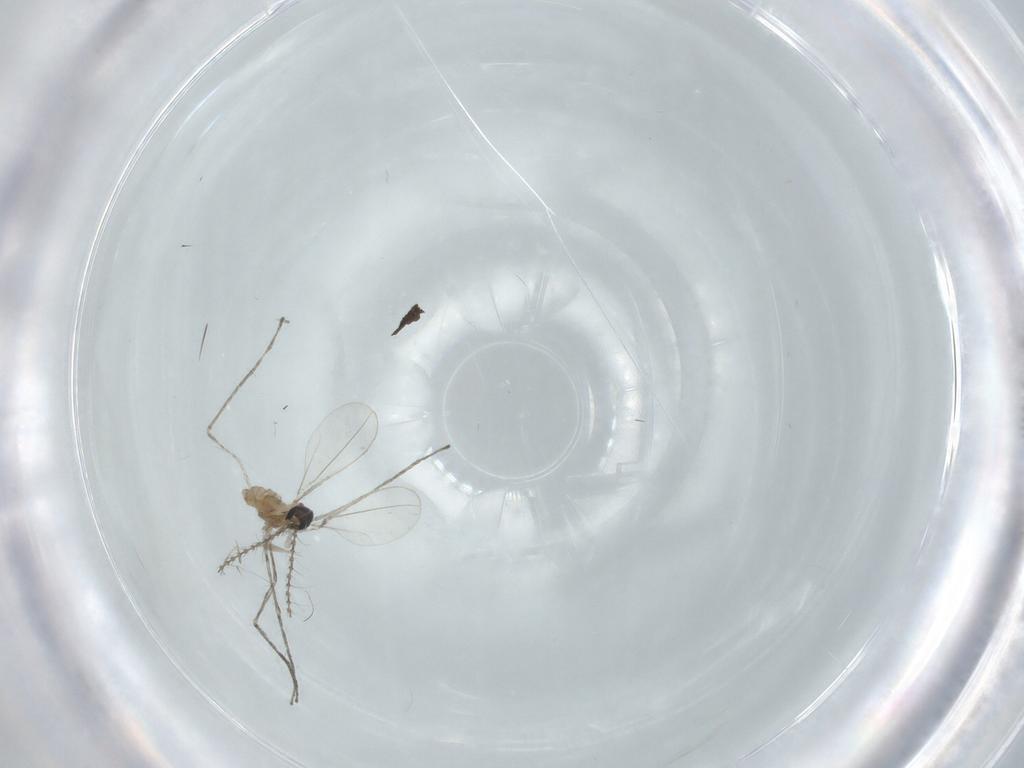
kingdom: Animalia
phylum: Arthropoda
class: Insecta
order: Diptera
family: Cecidomyiidae
